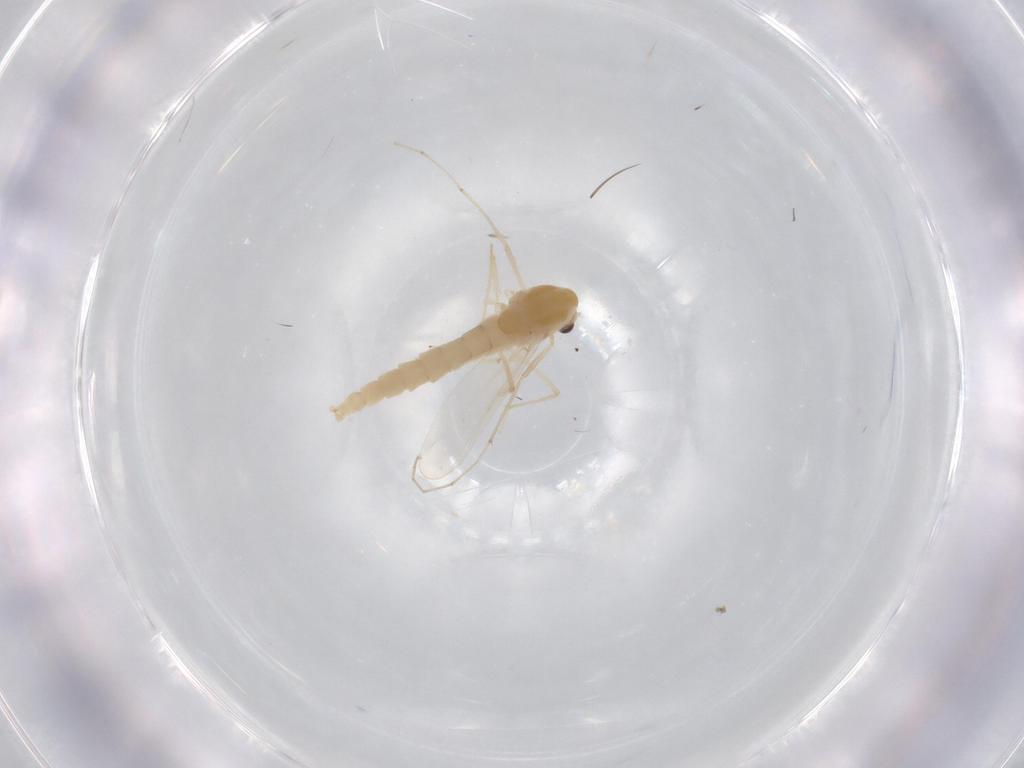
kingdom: Animalia
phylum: Arthropoda
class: Insecta
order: Diptera
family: Chironomidae
